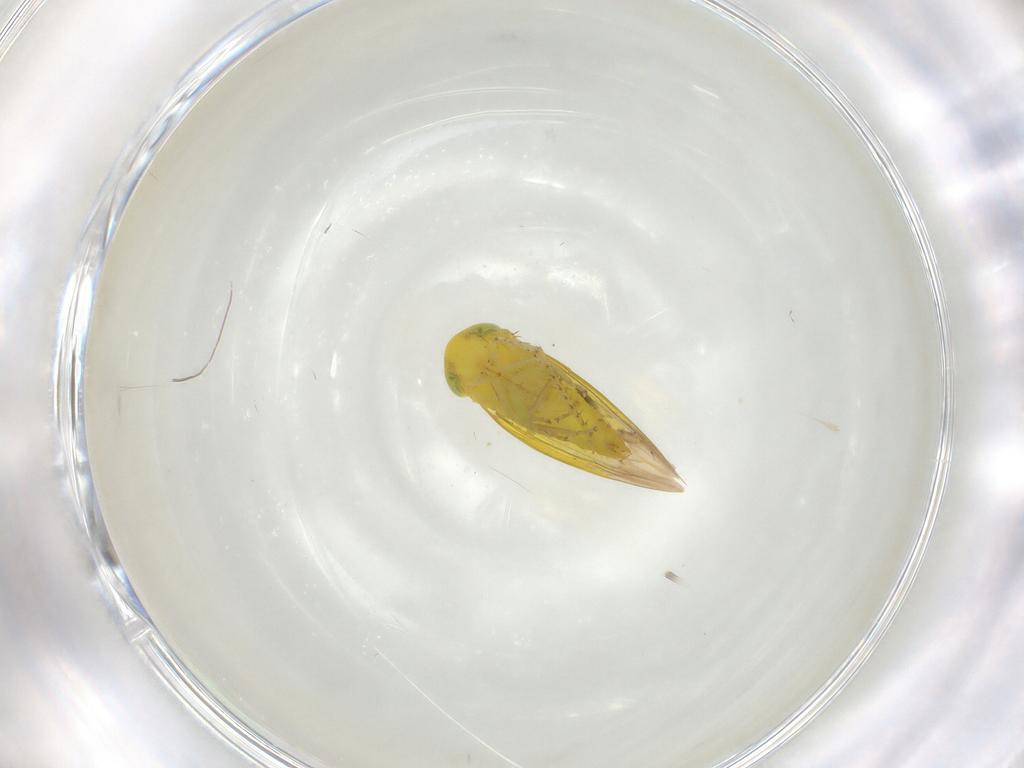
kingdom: Animalia
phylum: Arthropoda
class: Insecta
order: Hemiptera
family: Cicadellidae
